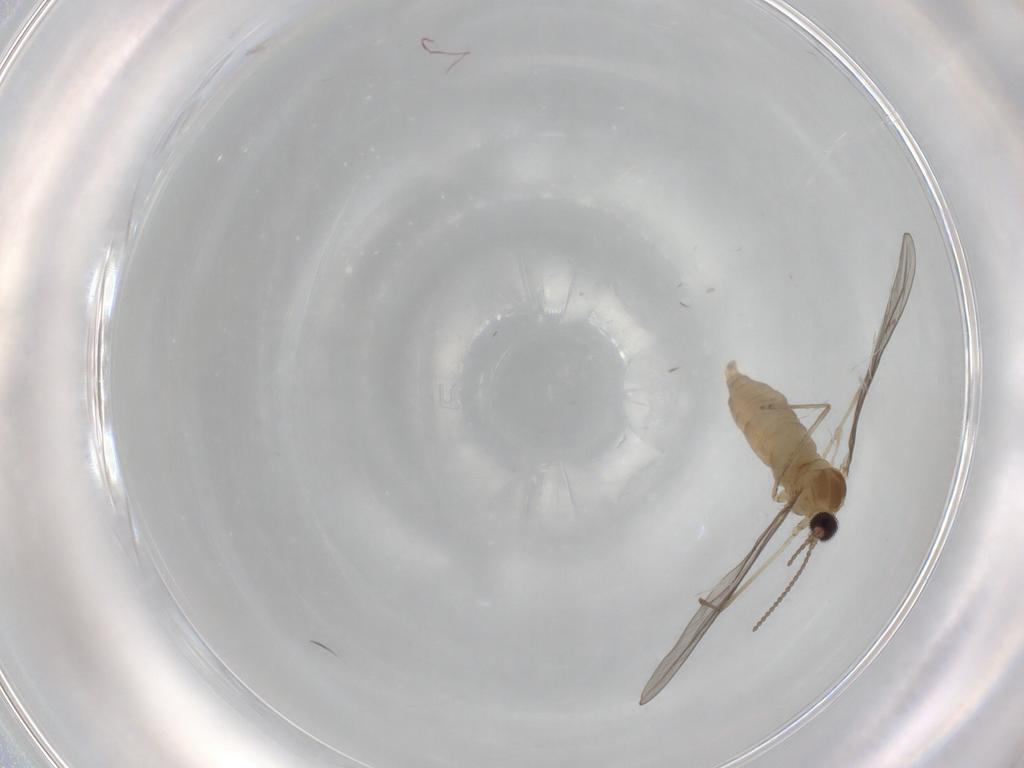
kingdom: Animalia
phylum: Arthropoda
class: Insecta
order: Diptera
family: Cecidomyiidae
